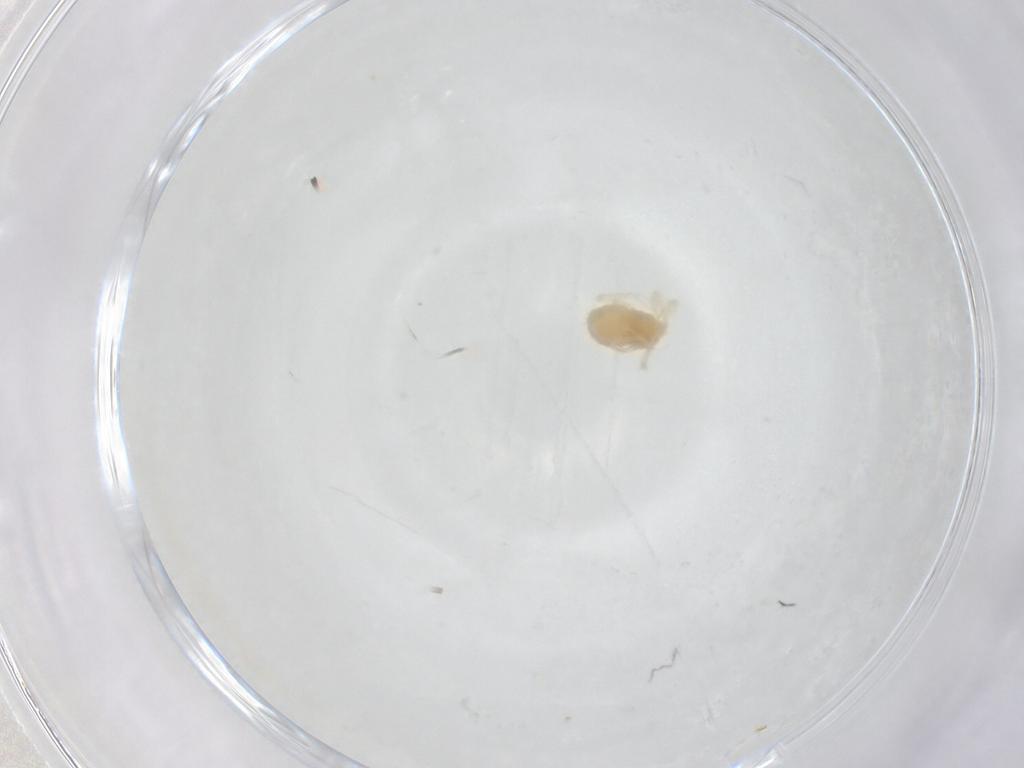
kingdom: Animalia
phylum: Arthropoda
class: Arachnida
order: Trombidiformes
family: Anystidae
